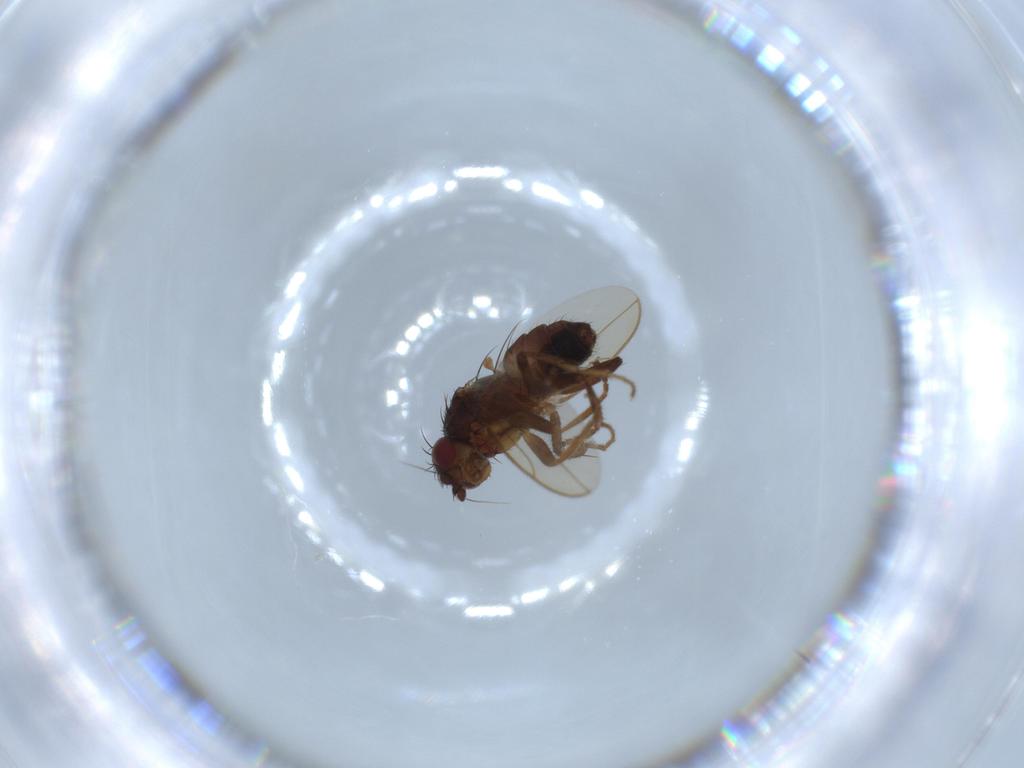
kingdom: Animalia
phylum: Arthropoda
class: Insecta
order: Diptera
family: Sphaeroceridae
